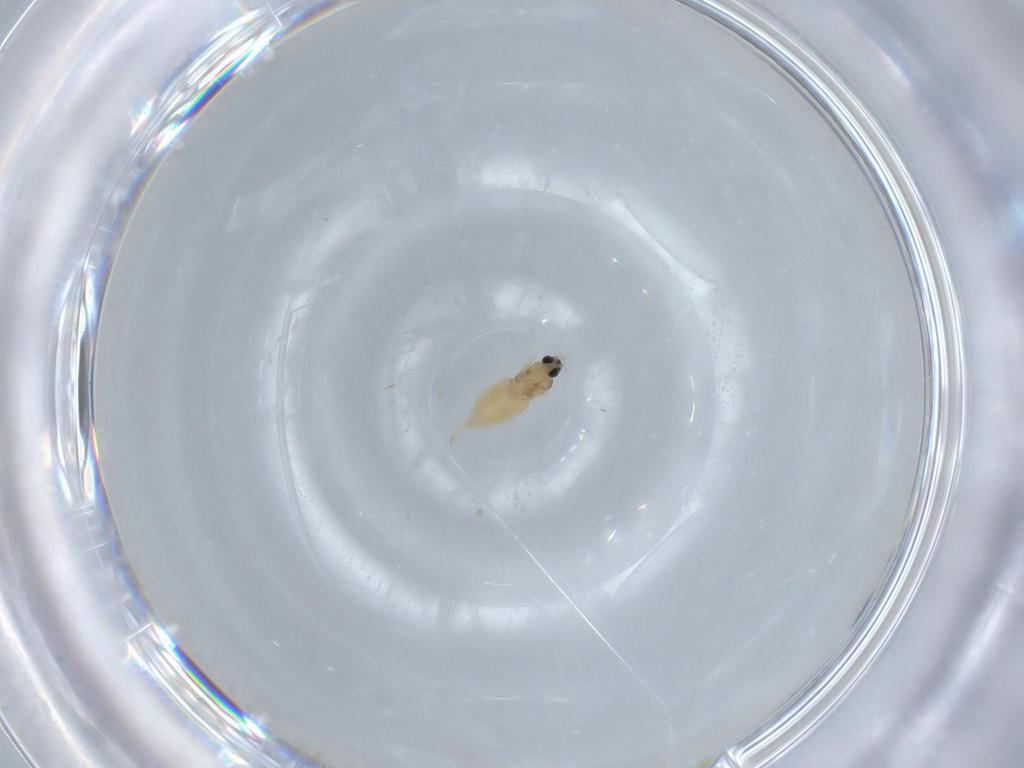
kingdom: Animalia
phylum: Arthropoda
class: Insecta
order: Diptera
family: Cecidomyiidae
